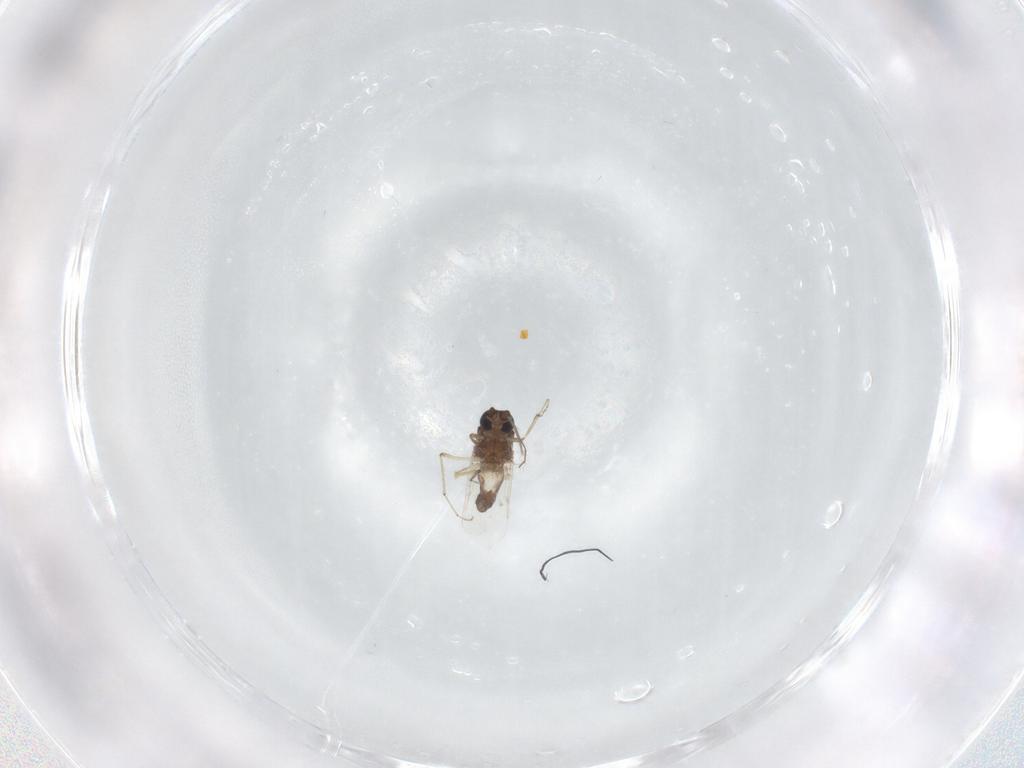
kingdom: Animalia
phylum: Arthropoda
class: Insecta
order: Diptera
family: Ceratopogonidae
